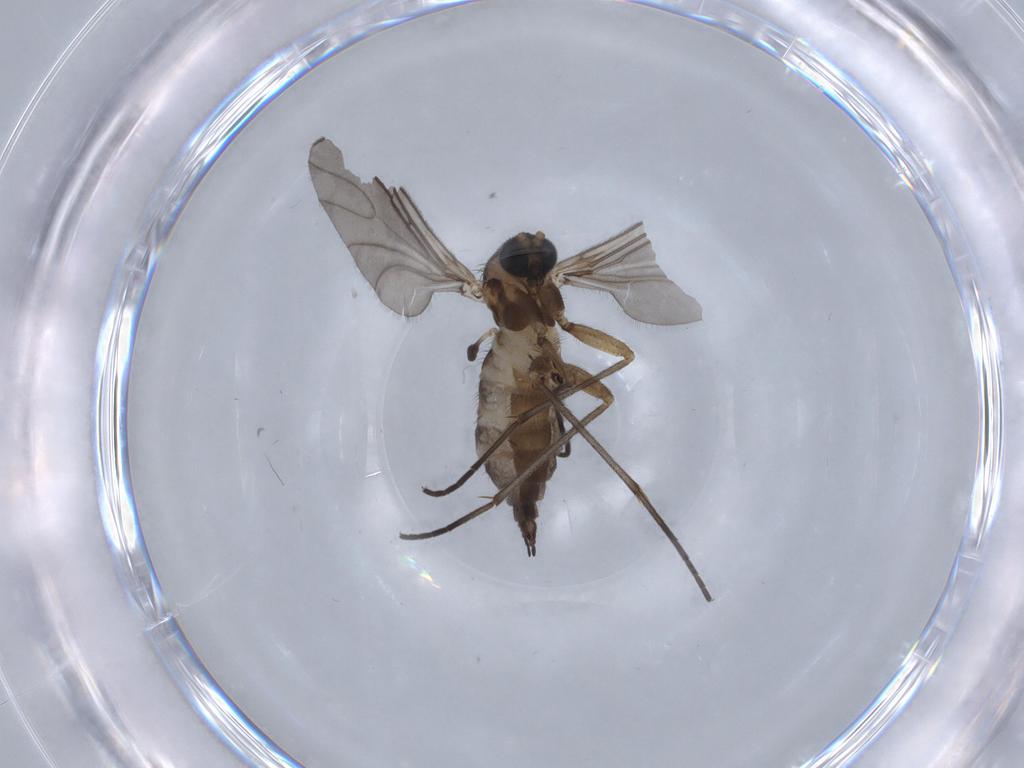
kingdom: Animalia
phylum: Arthropoda
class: Insecta
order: Diptera
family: Sciaridae
